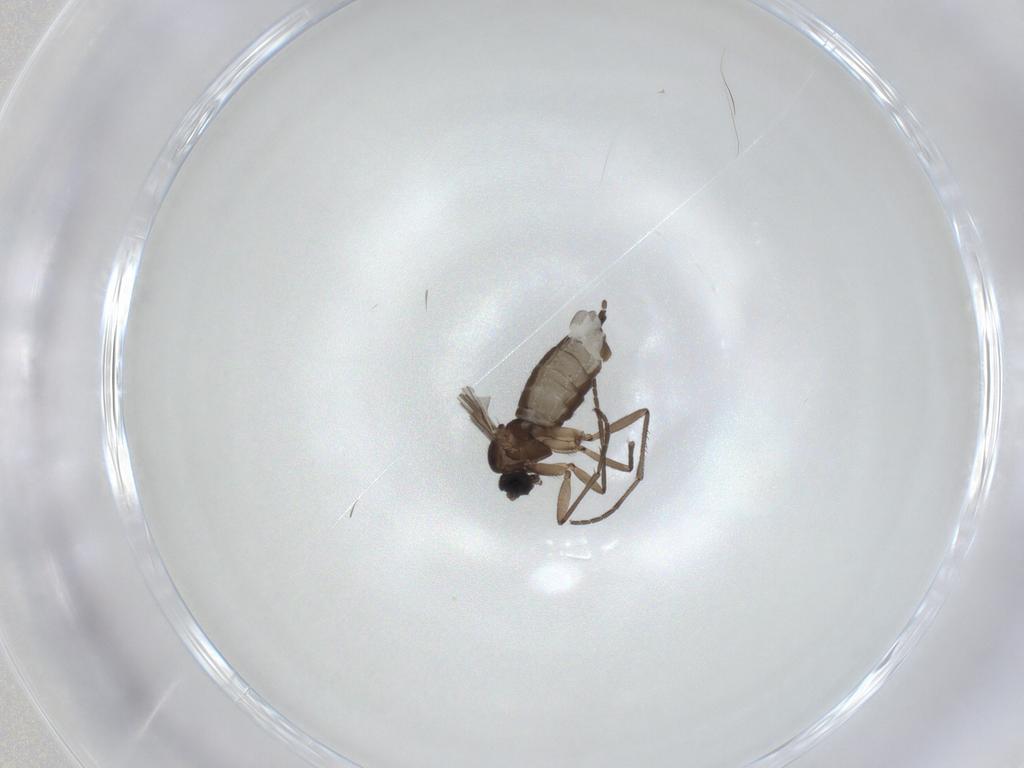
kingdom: Animalia
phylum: Arthropoda
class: Insecta
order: Diptera
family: Sciaridae
